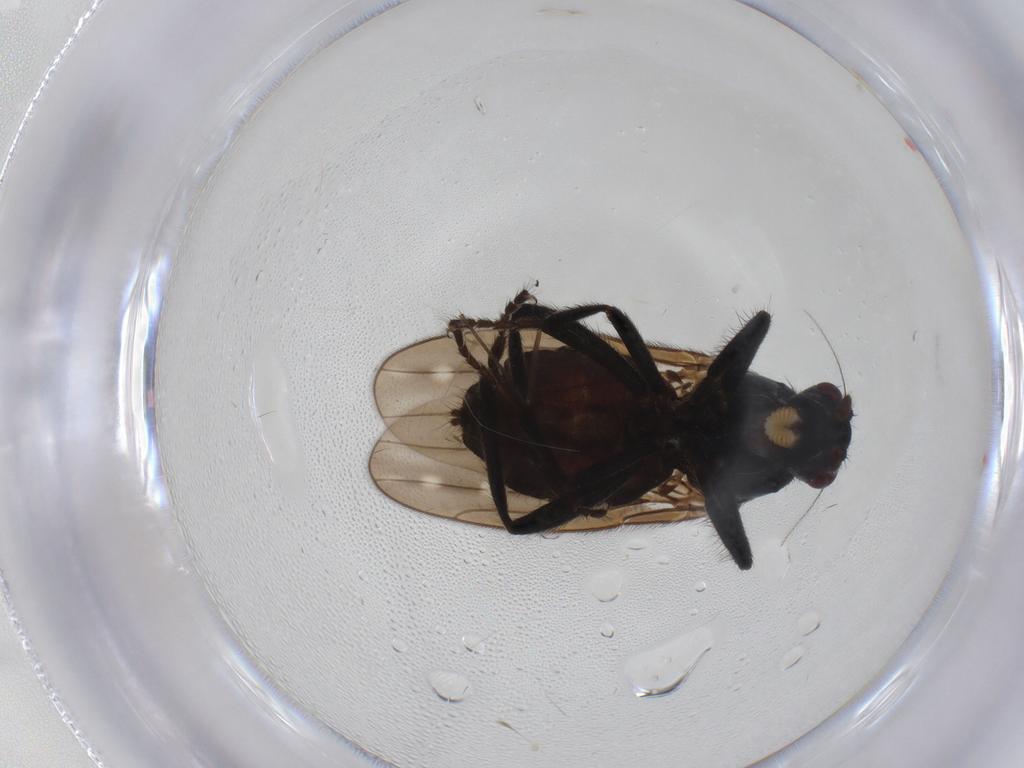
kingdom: Animalia
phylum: Arthropoda
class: Insecta
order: Diptera
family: Sphaeroceridae
